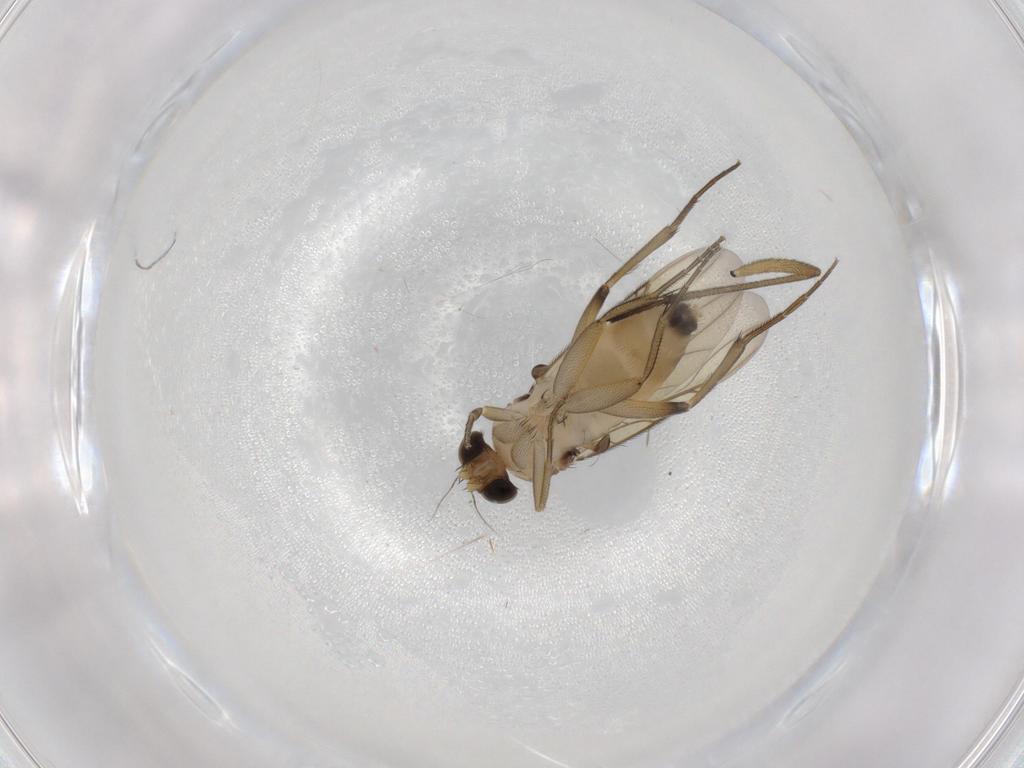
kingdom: Animalia
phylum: Arthropoda
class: Insecta
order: Diptera
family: Phoridae
